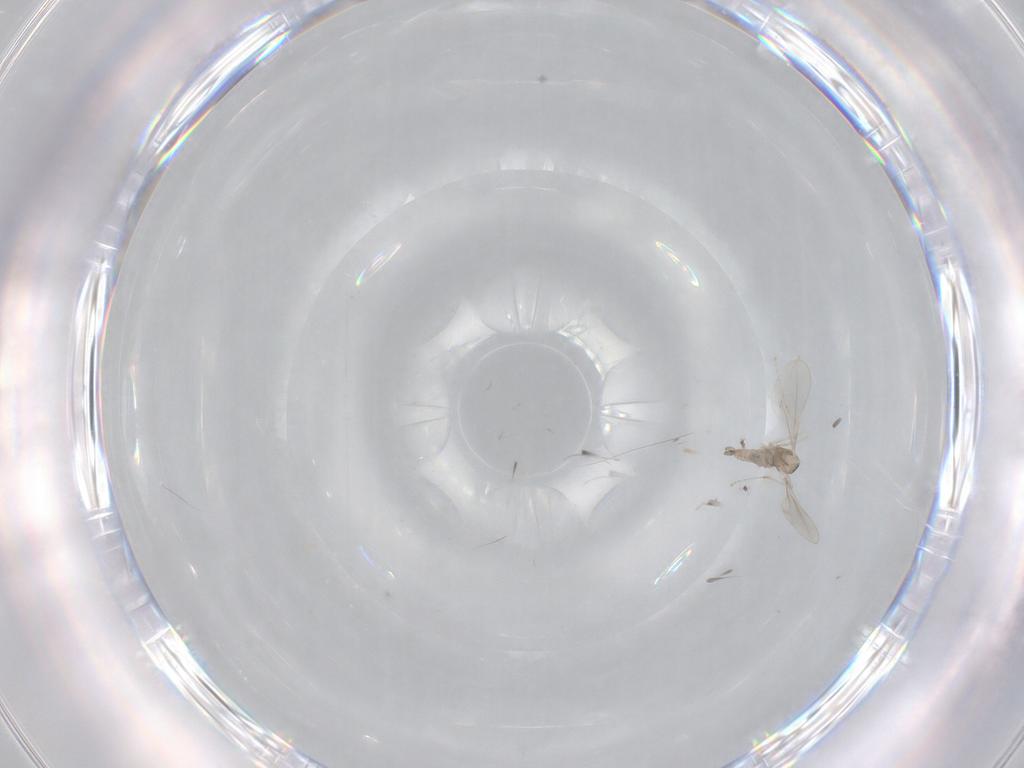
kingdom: Animalia
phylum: Arthropoda
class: Insecta
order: Diptera
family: Cecidomyiidae
